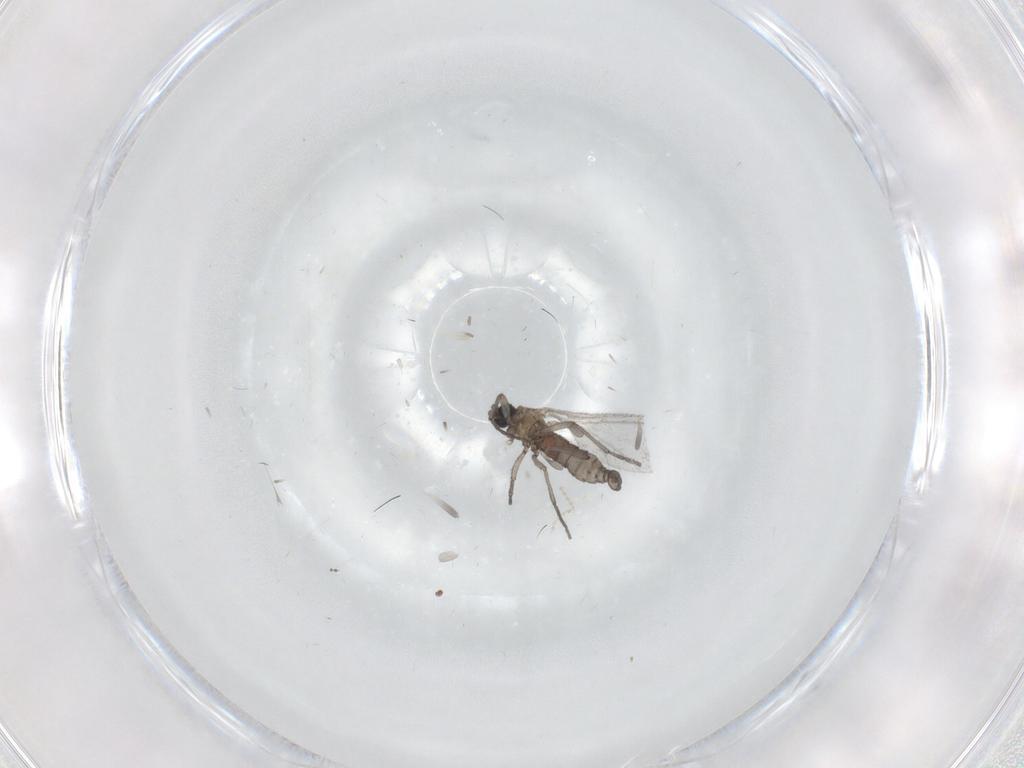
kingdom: Animalia
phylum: Arthropoda
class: Insecta
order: Diptera
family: Sciaridae
